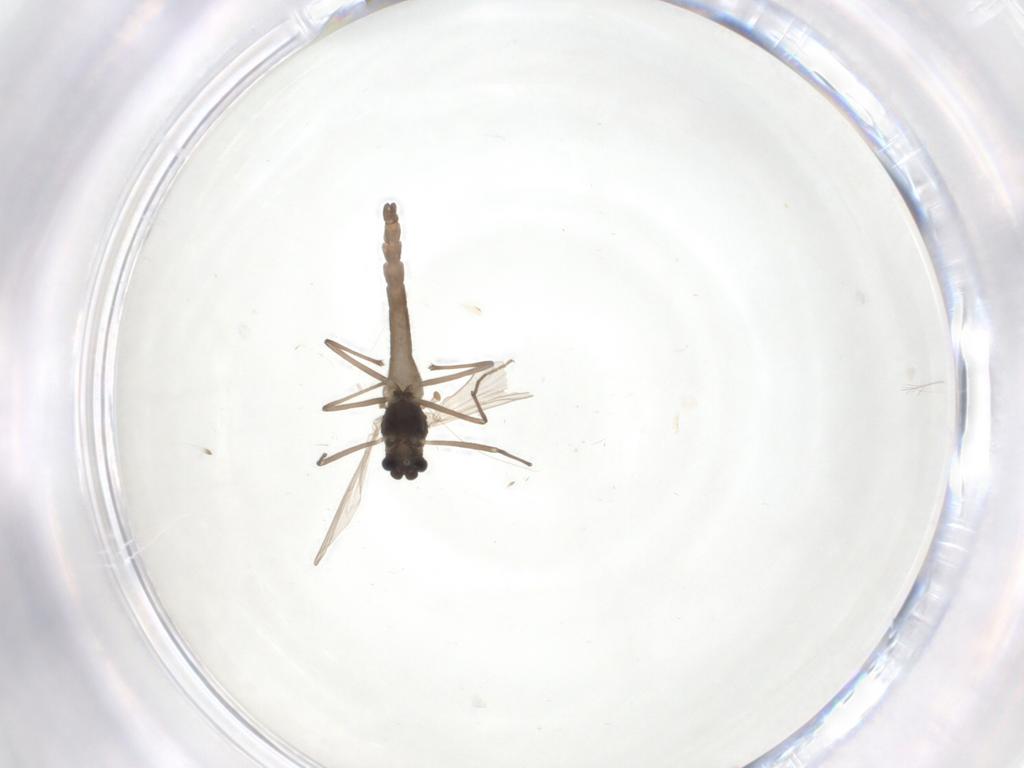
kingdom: Animalia
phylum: Arthropoda
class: Insecta
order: Diptera
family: Chironomidae
